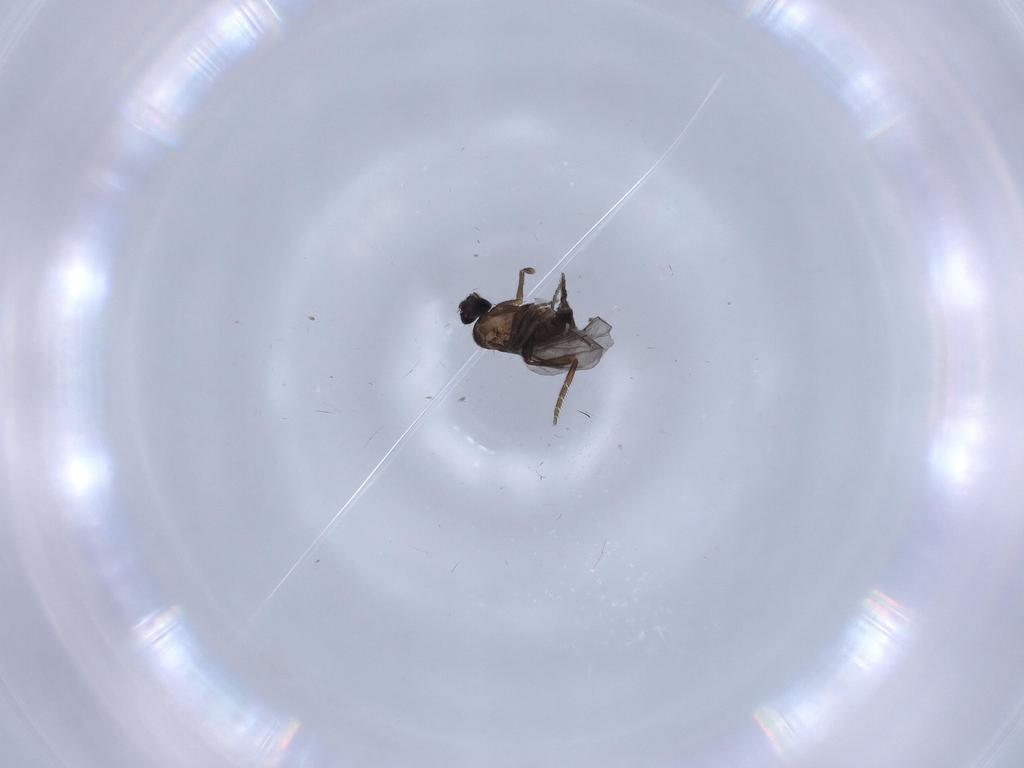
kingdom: Animalia
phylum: Arthropoda
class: Insecta
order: Diptera
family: Chironomidae
